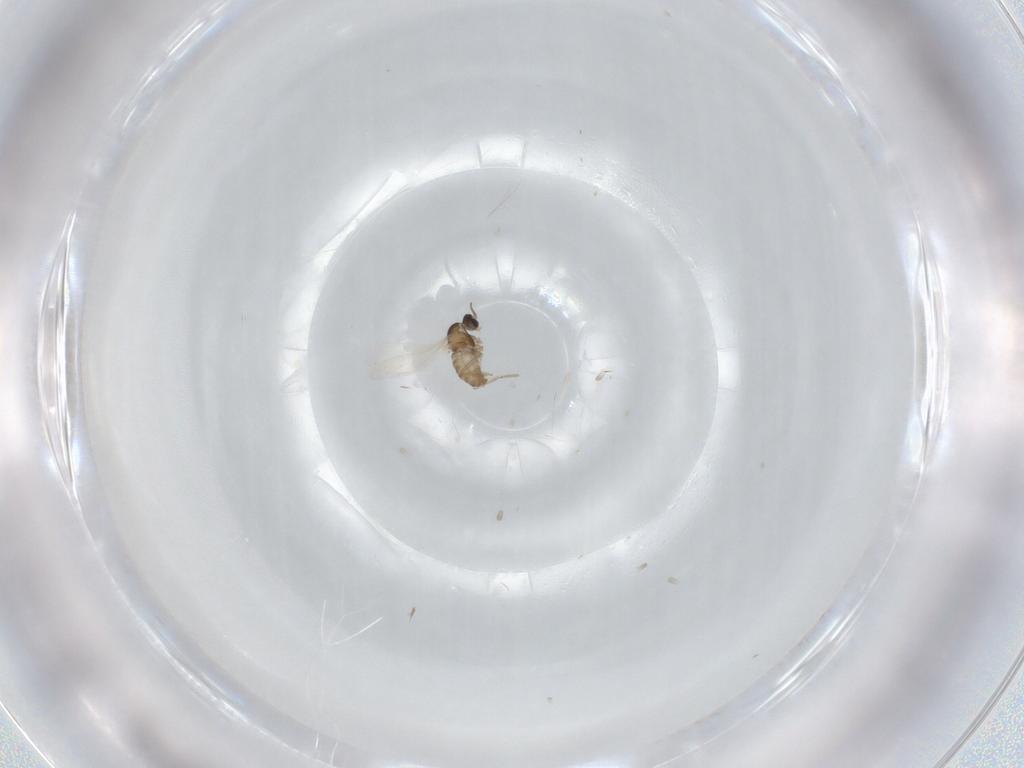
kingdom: Animalia
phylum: Arthropoda
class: Insecta
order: Diptera
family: Cecidomyiidae
